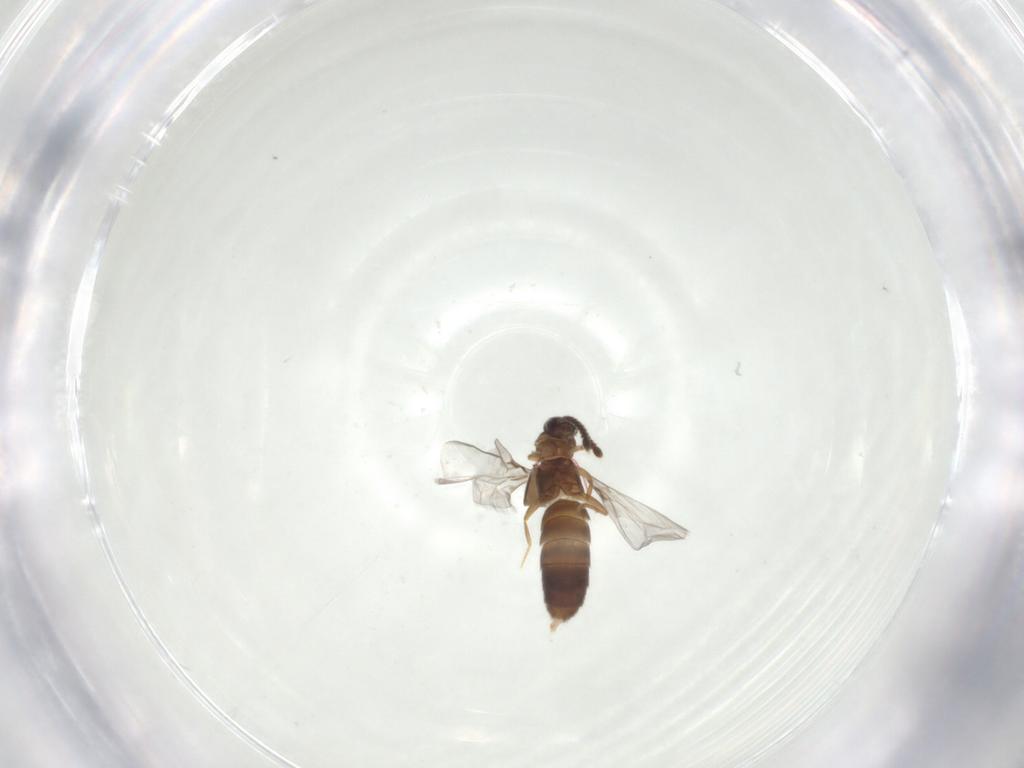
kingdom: Animalia
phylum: Arthropoda
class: Insecta
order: Coleoptera
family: Staphylinidae
